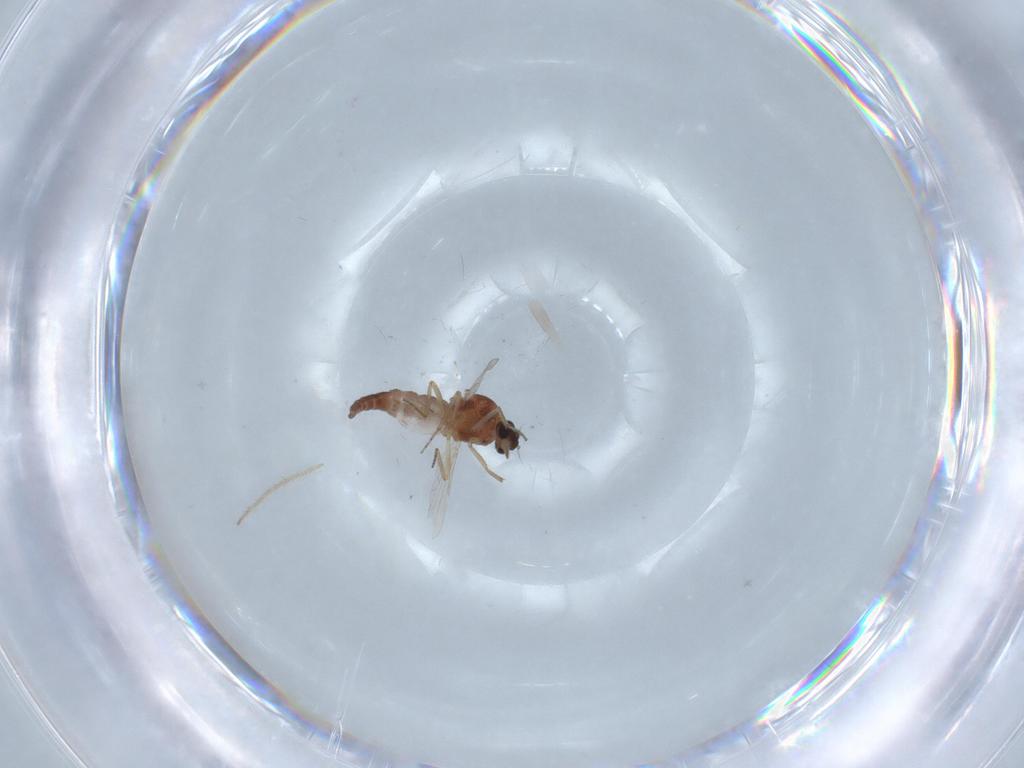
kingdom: Animalia
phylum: Arthropoda
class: Insecta
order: Diptera
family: Ceratopogonidae
